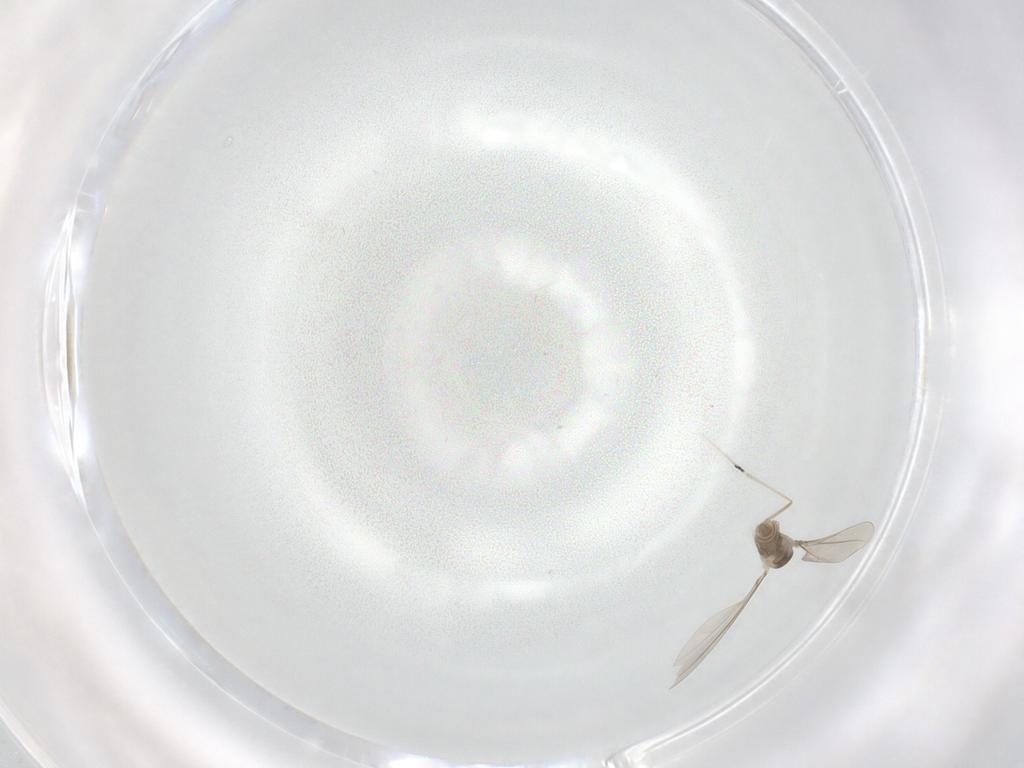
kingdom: Animalia
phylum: Arthropoda
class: Insecta
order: Diptera
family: Cecidomyiidae
